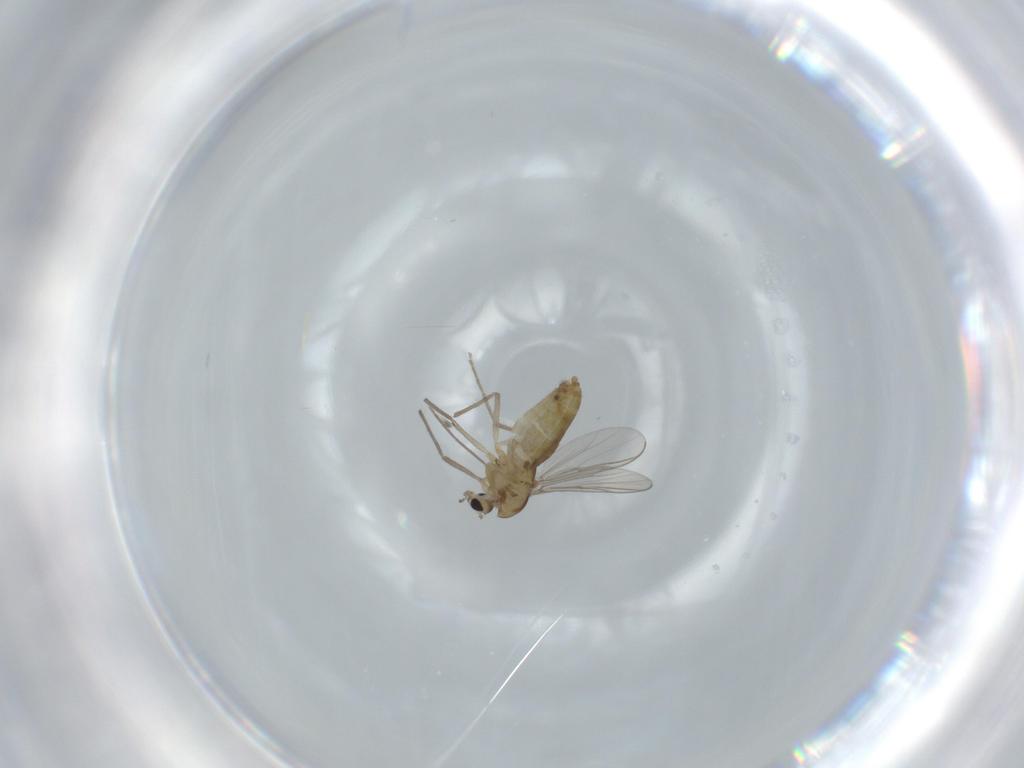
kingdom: Animalia
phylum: Arthropoda
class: Insecta
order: Diptera
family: Chironomidae
